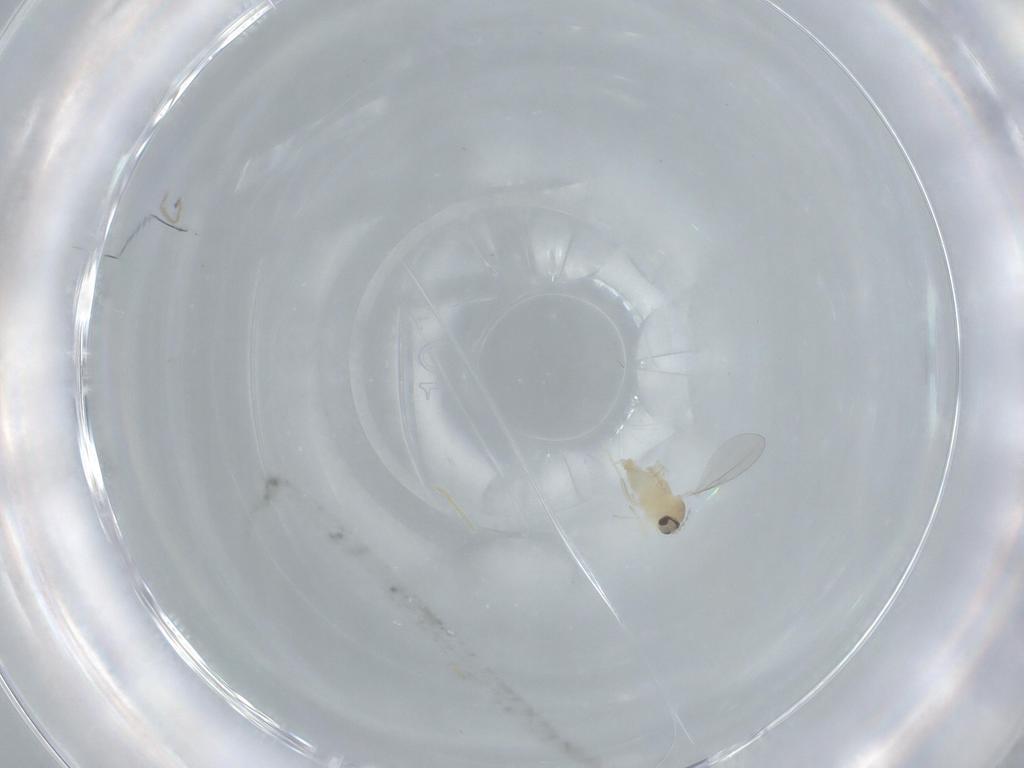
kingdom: Animalia
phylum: Arthropoda
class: Insecta
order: Diptera
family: Cecidomyiidae
